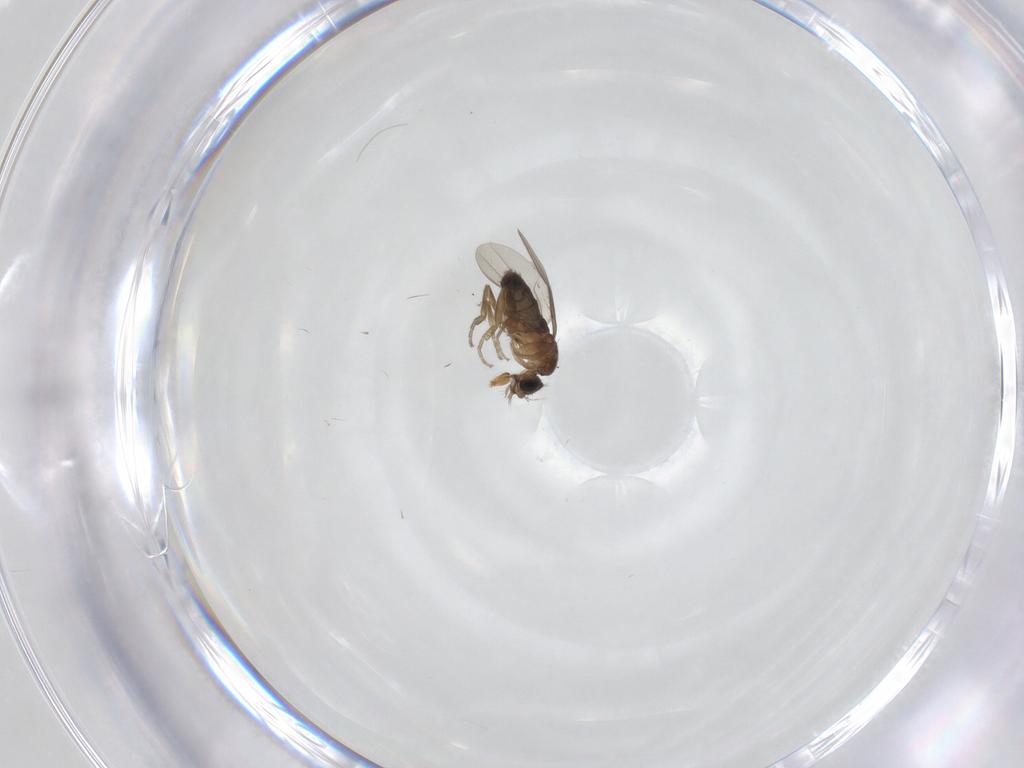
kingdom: Animalia
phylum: Arthropoda
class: Insecta
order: Diptera
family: Phoridae
